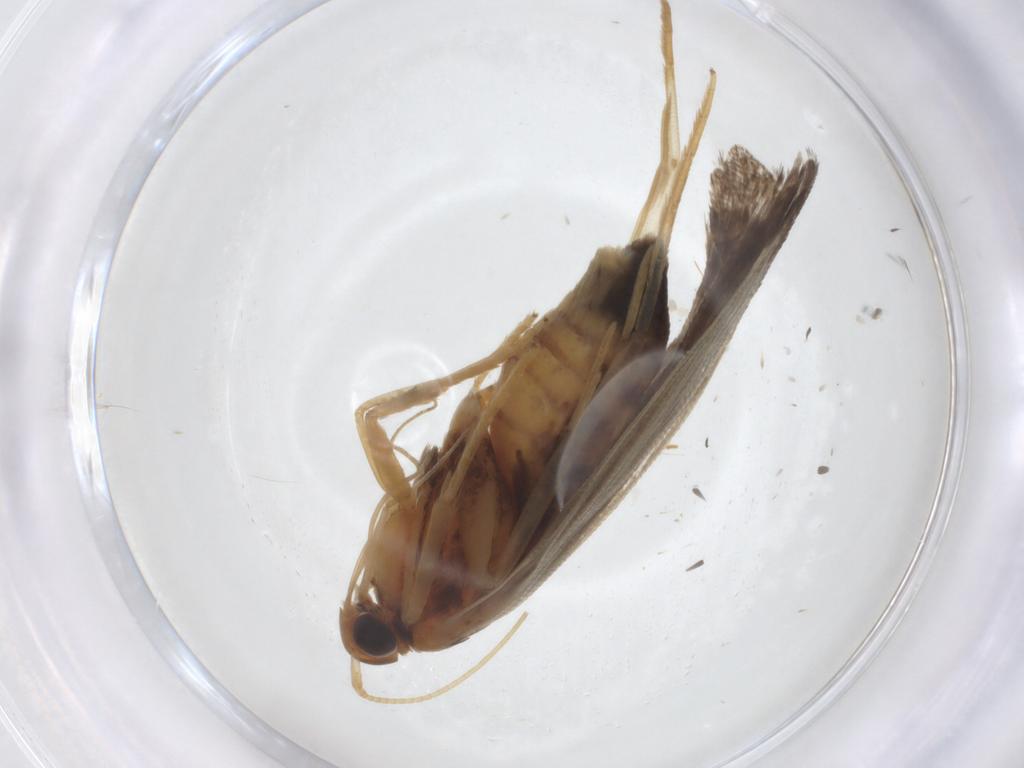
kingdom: Animalia
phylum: Arthropoda
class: Insecta
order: Lepidoptera
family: Lecithoceridae
